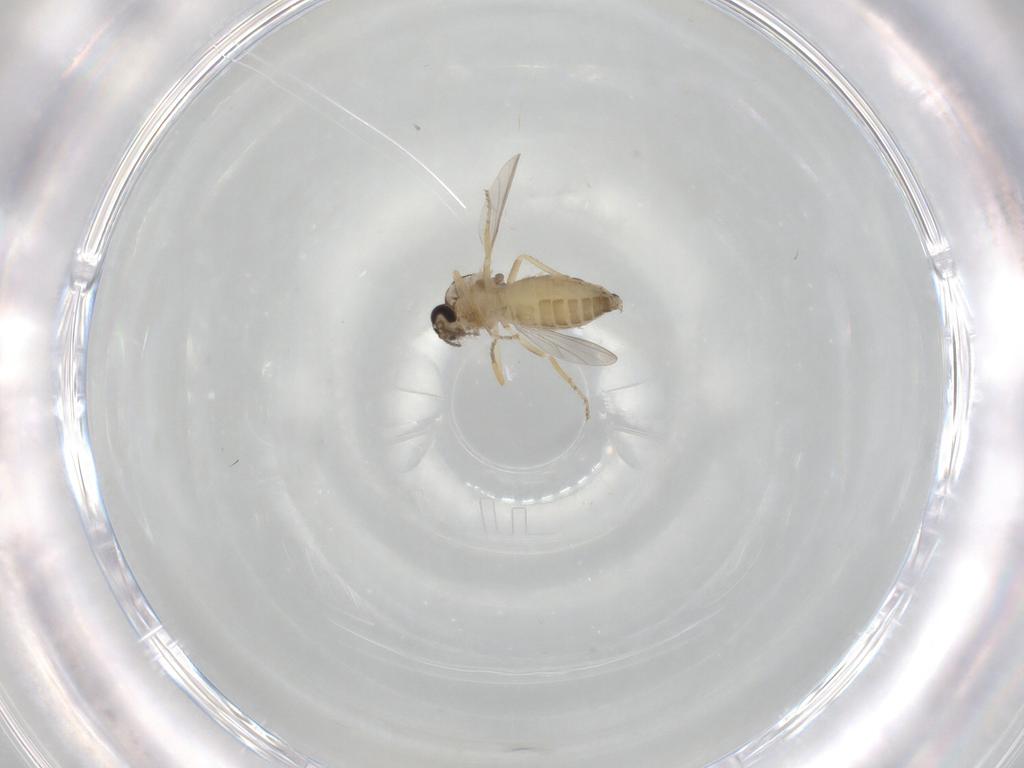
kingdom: Animalia
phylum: Arthropoda
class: Insecta
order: Diptera
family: Ceratopogonidae
